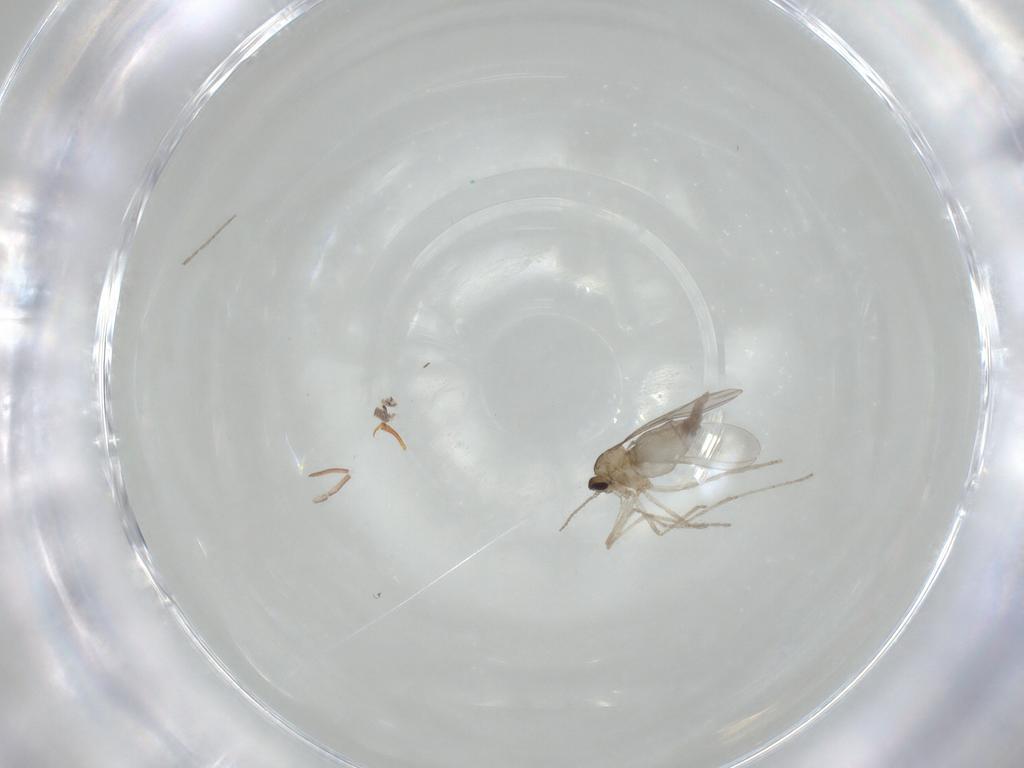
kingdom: Animalia
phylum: Arthropoda
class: Insecta
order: Diptera
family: Cecidomyiidae
